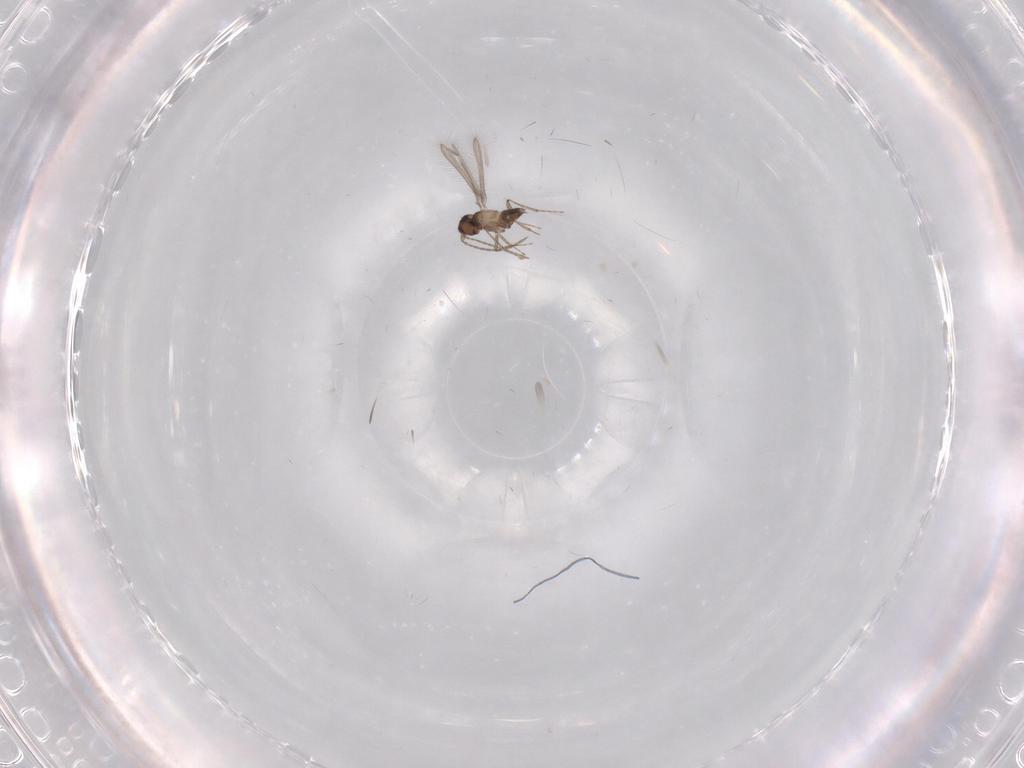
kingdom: Animalia
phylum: Arthropoda
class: Insecta
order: Hymenoptera
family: Mymaridae
